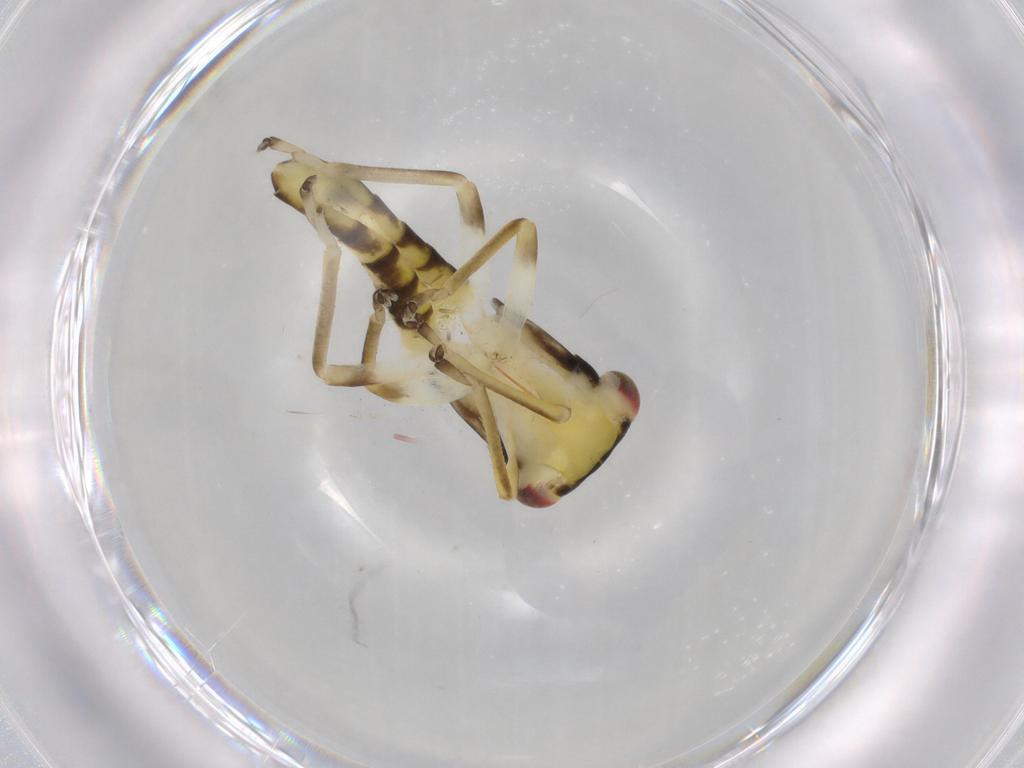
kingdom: Animalia
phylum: Arthropoda
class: Insecta
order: Hemiptera
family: Cicadellidae
